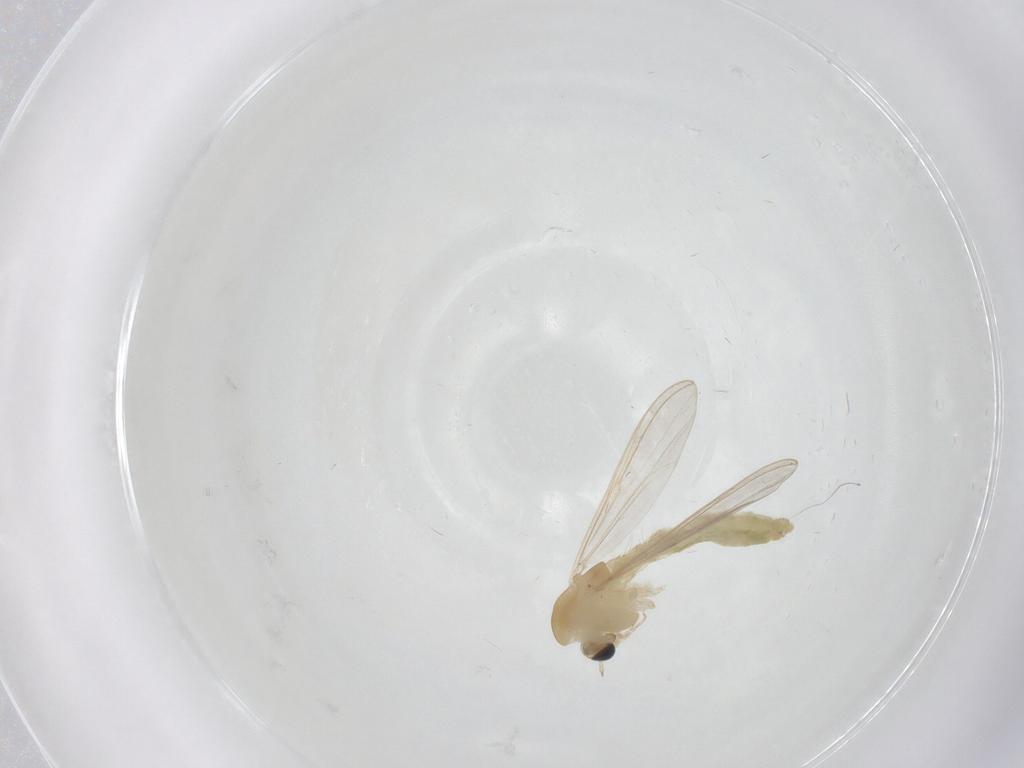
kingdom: Animalia
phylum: Arthropoda
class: Insecta
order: Diptera
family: Chironomidae
